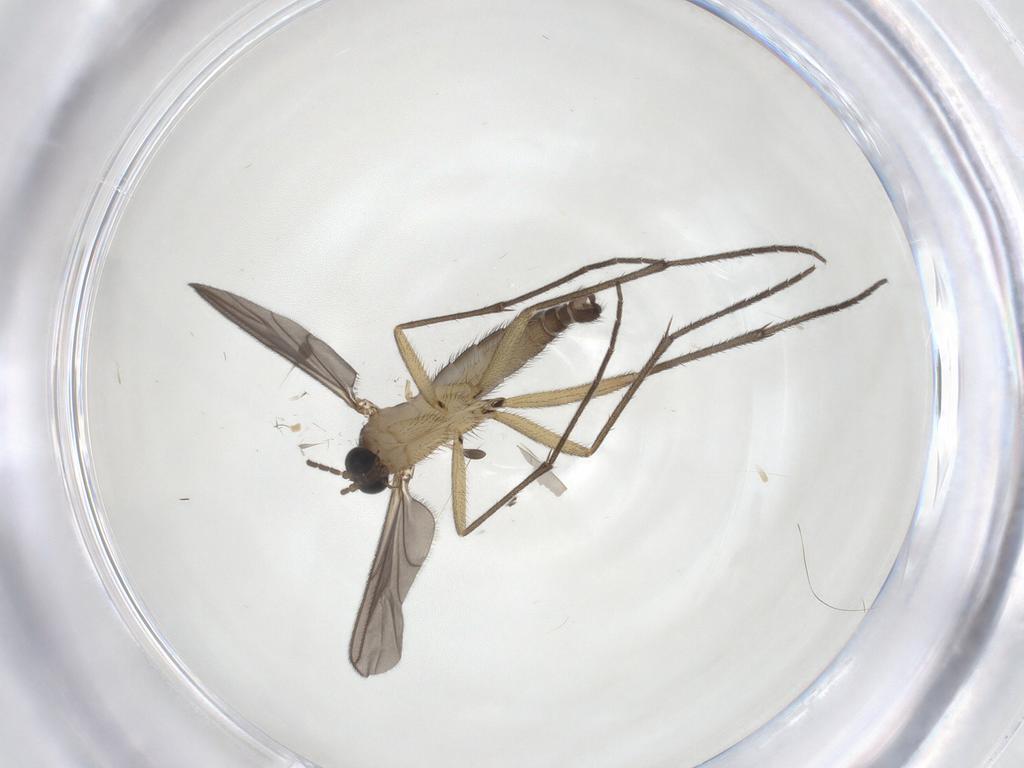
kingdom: Animalia
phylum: Arthropoda
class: Insecta
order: Diptera
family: Sciaridae
